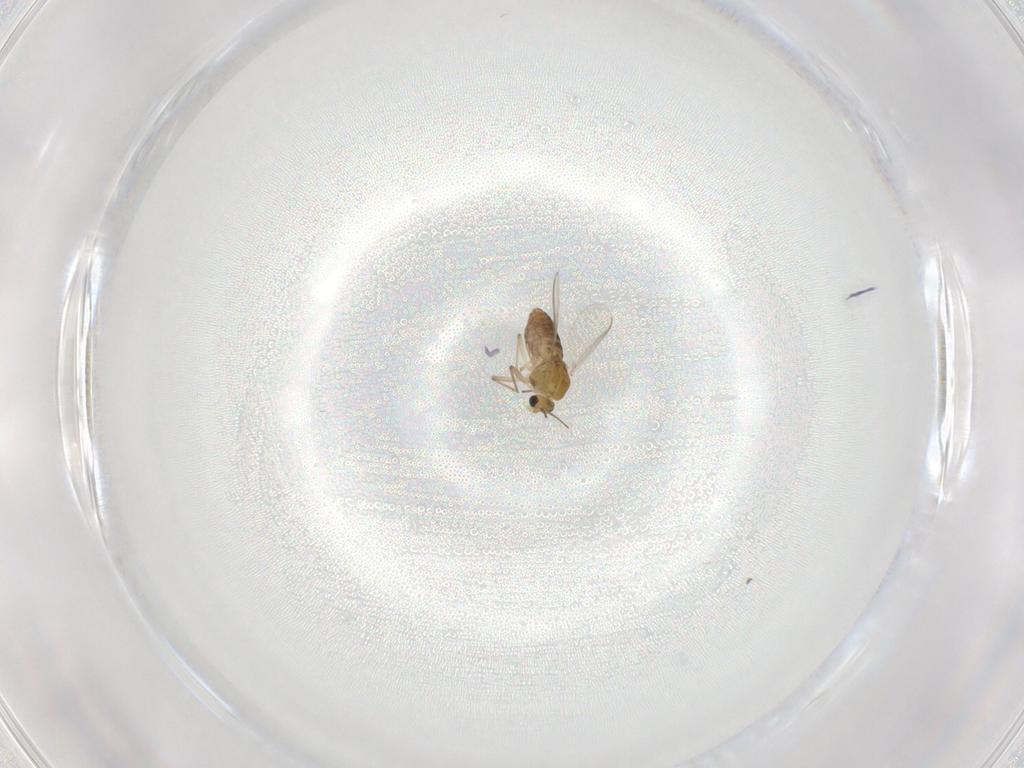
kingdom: Animalia
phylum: Arthropoda
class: Insecta
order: Diptera
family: Chironomidae
